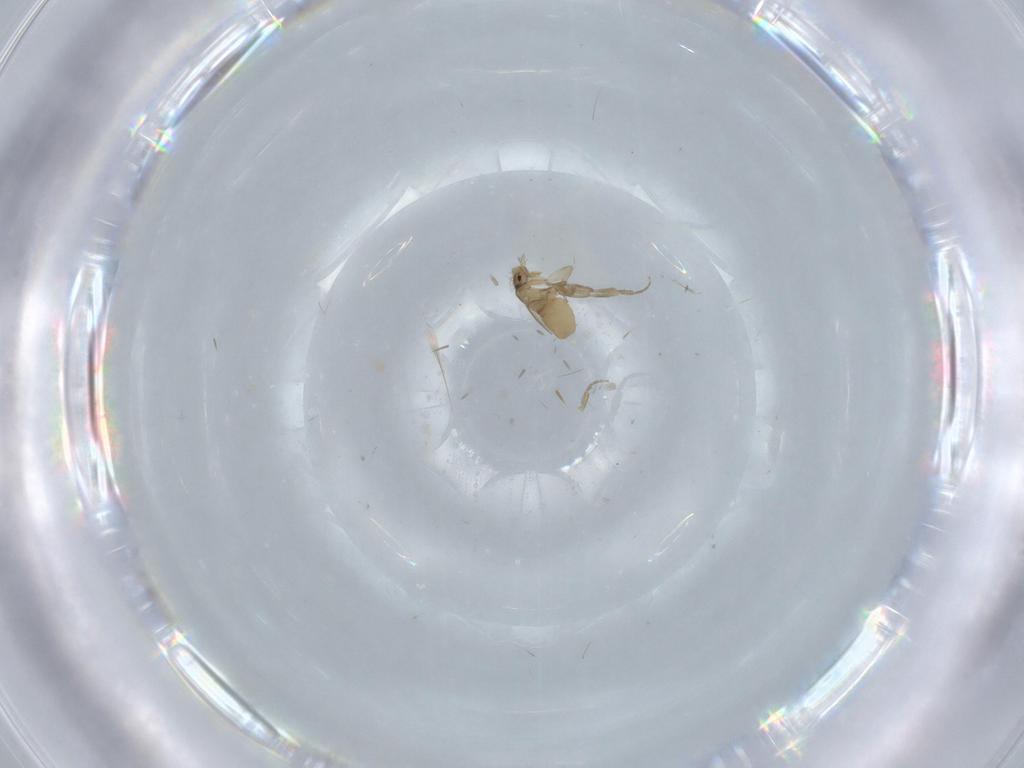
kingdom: Animalia
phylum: Arthropoda
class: Insecta
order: Diptera
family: Phoridae
